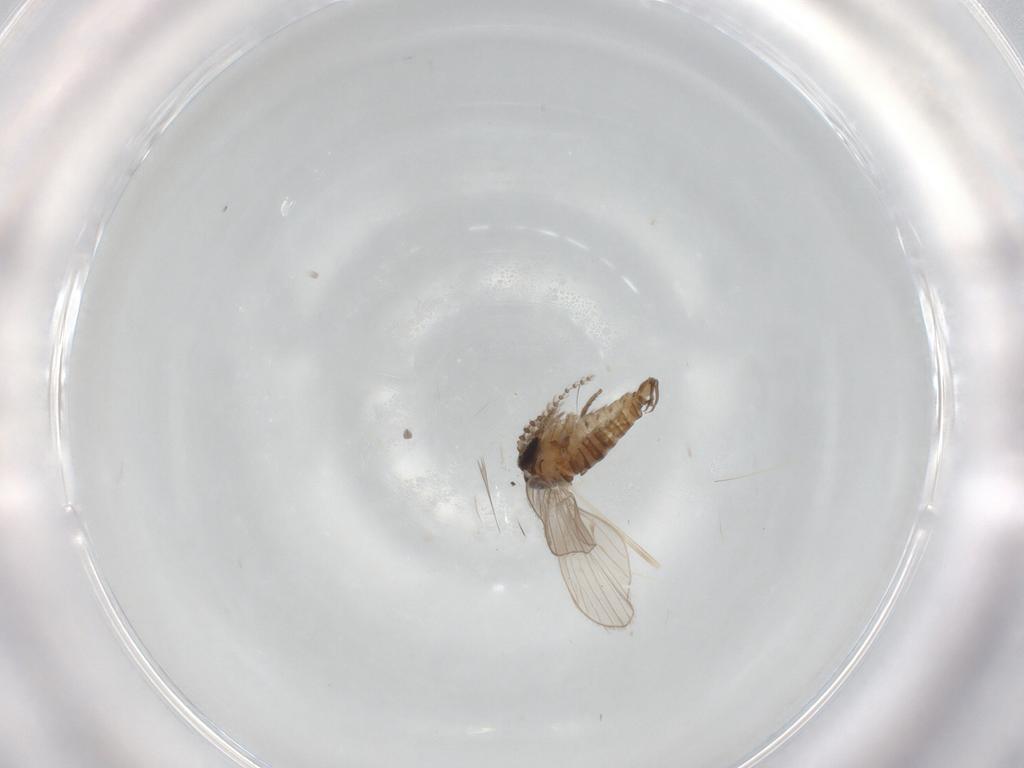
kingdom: Animalia
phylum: Arthropoda
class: Insecta
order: Diptera
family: Psychodidae
